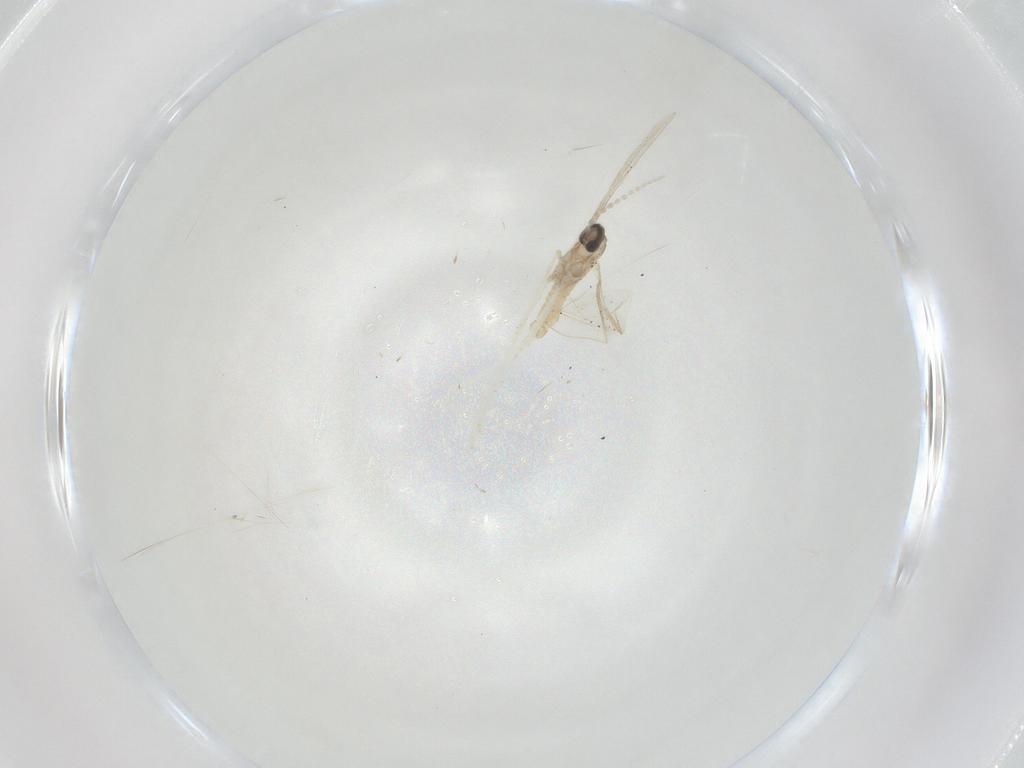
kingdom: Animalia
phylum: Arthropoda
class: Insecta
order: Diptera
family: Cecidomyiidae
